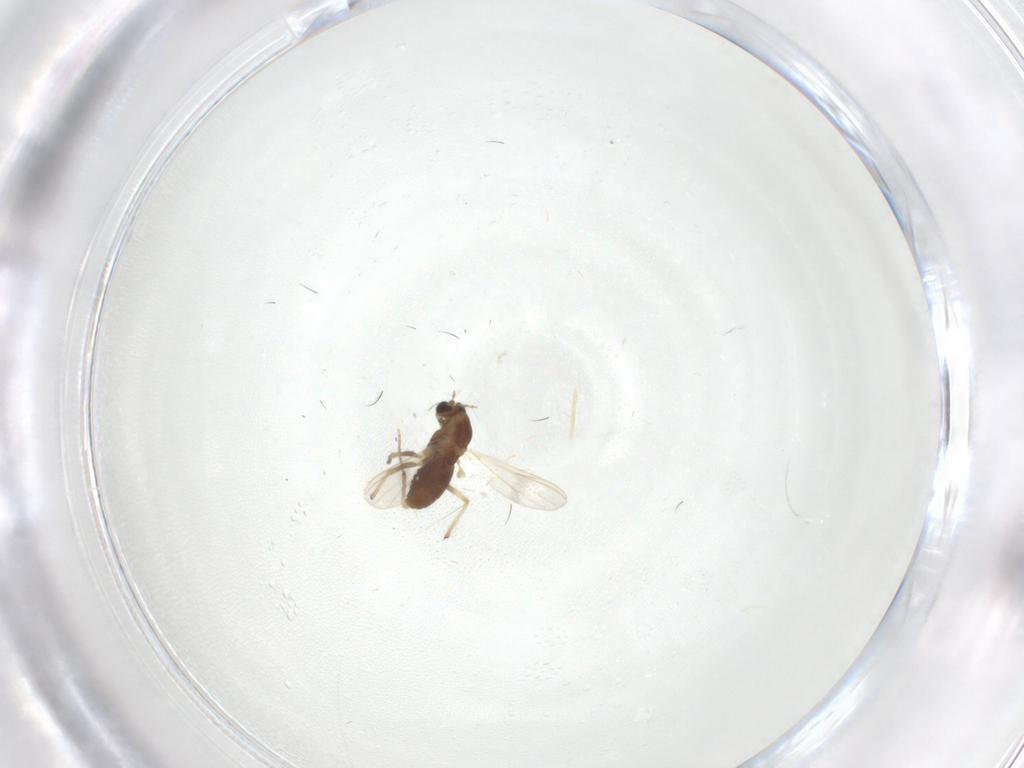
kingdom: Animalia
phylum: Arthropoda
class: Insecta
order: Diptera
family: Chironomidae
